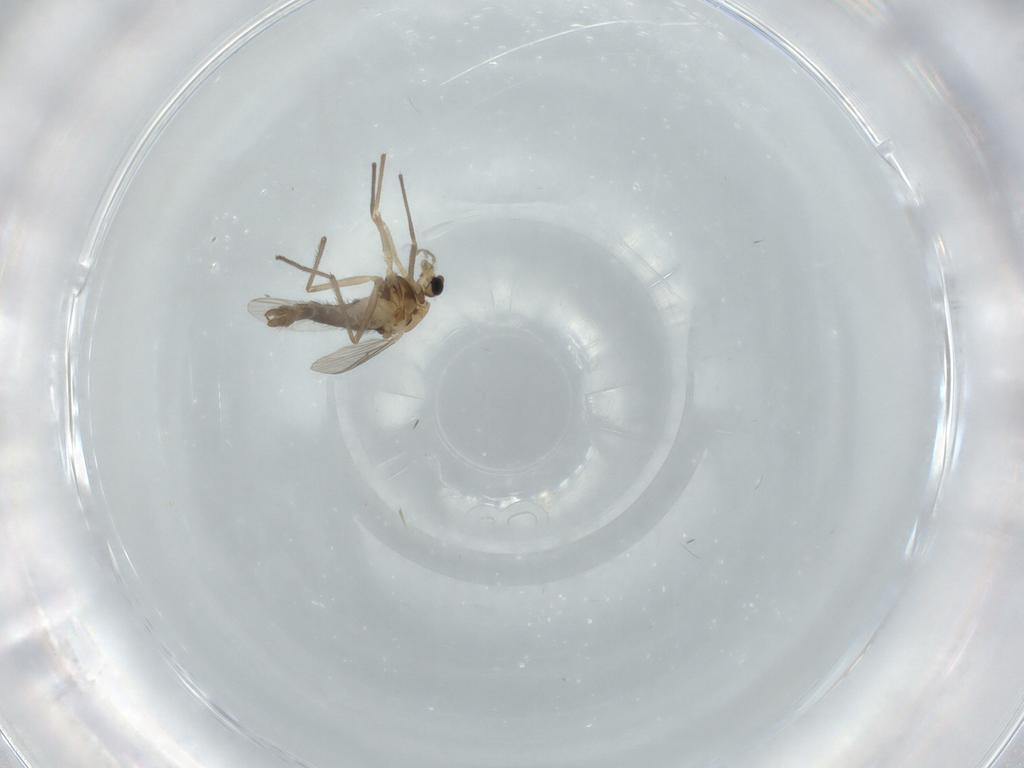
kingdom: Animalia
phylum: Arthropoda
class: Insecta
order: Diptera
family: Chironomidae
